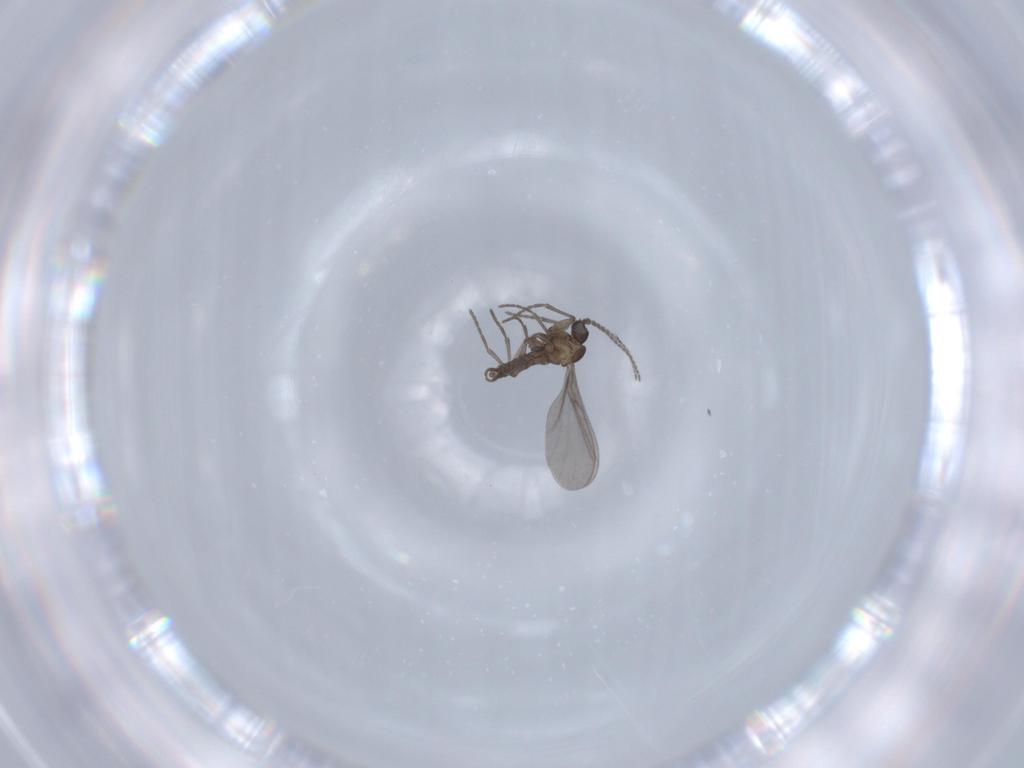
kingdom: Animalia
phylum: Arthropoda
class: Insecta
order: Diptera
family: Sciaridae
